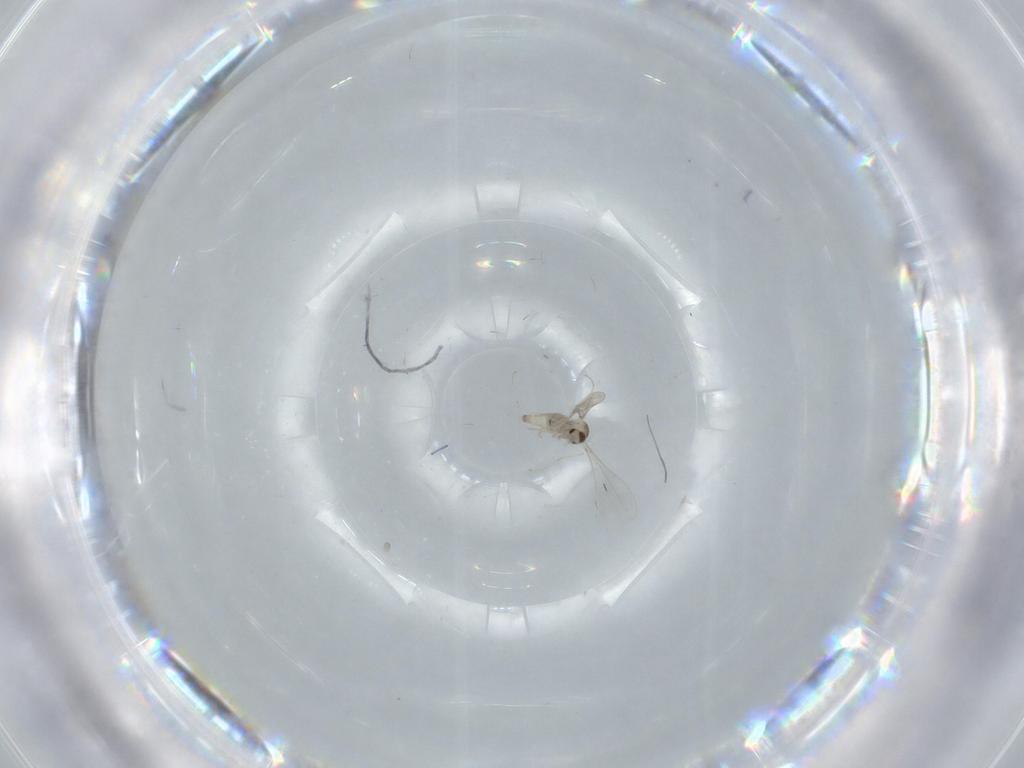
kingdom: Animalia
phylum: Arthropoda
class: Insecta
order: Diptera
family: Cecidomyiidae
